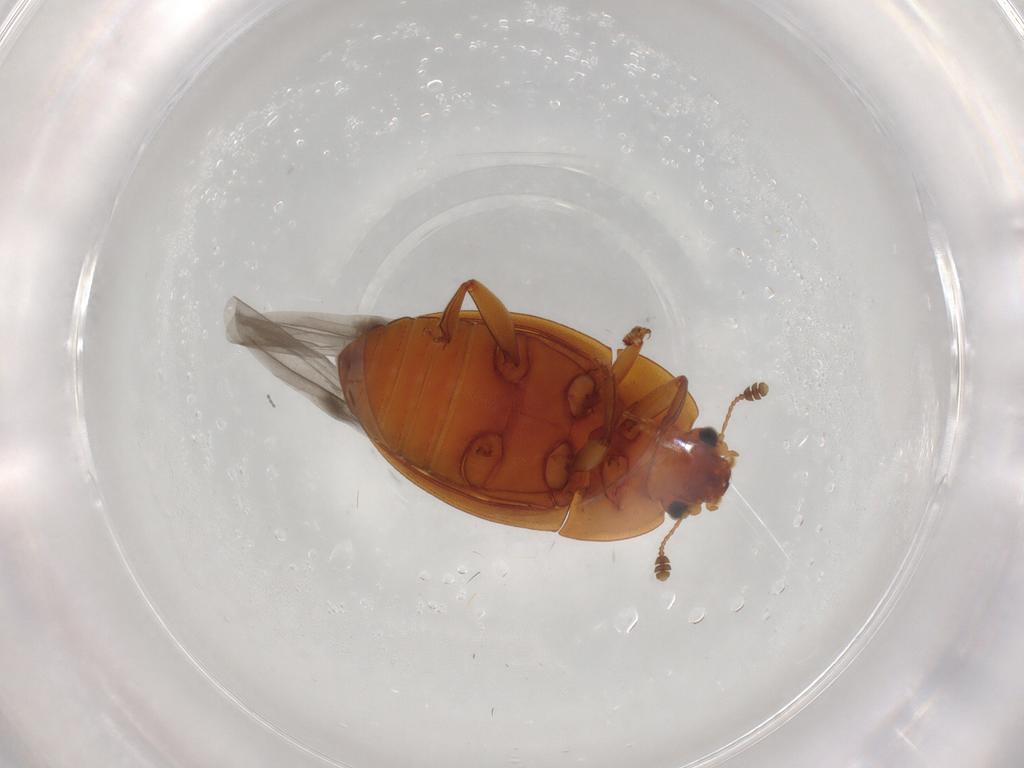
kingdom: Animalia
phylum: Arthropoda
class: Insecta
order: Coleoptera
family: Nitidulidae
